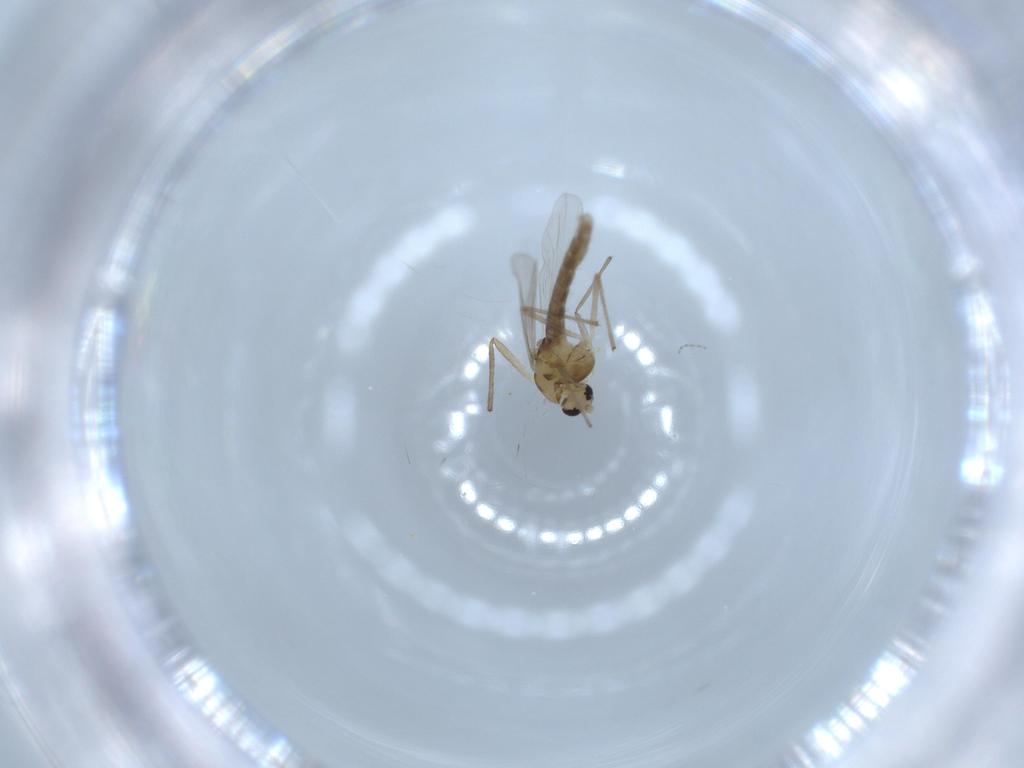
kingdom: Animalia
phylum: Arthropoda
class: Insecta
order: Diptera
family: Chironomidae
